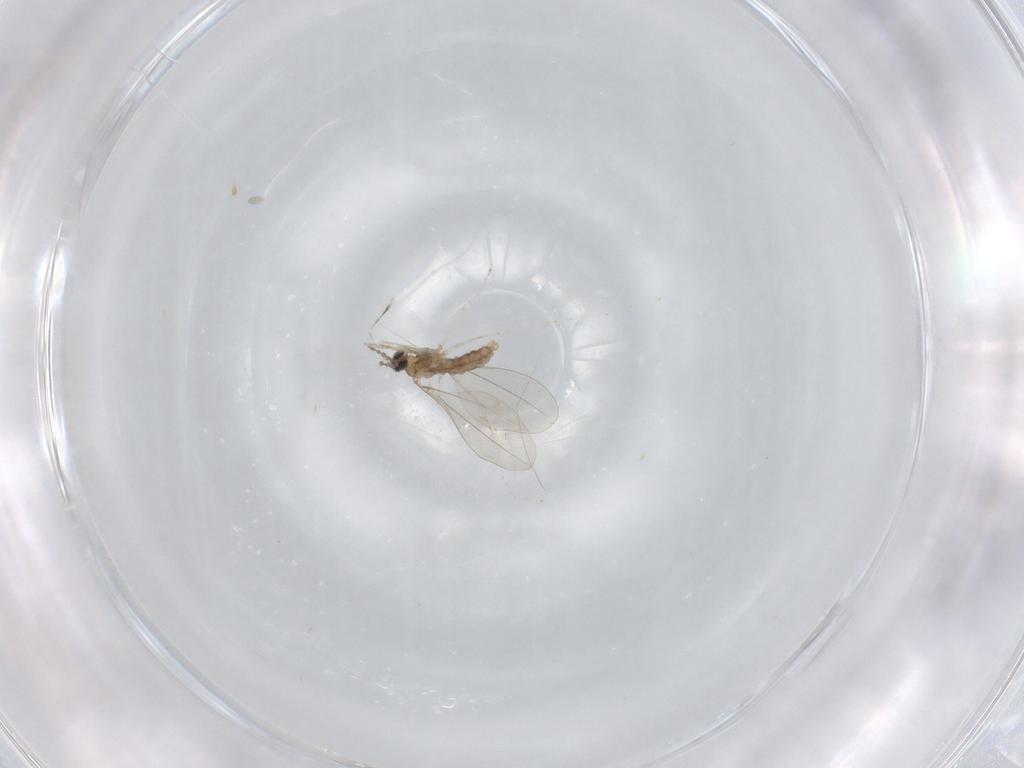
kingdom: Animalia
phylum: Arthropoda
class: Insecta
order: Diptera
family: Cecidomyiidae
